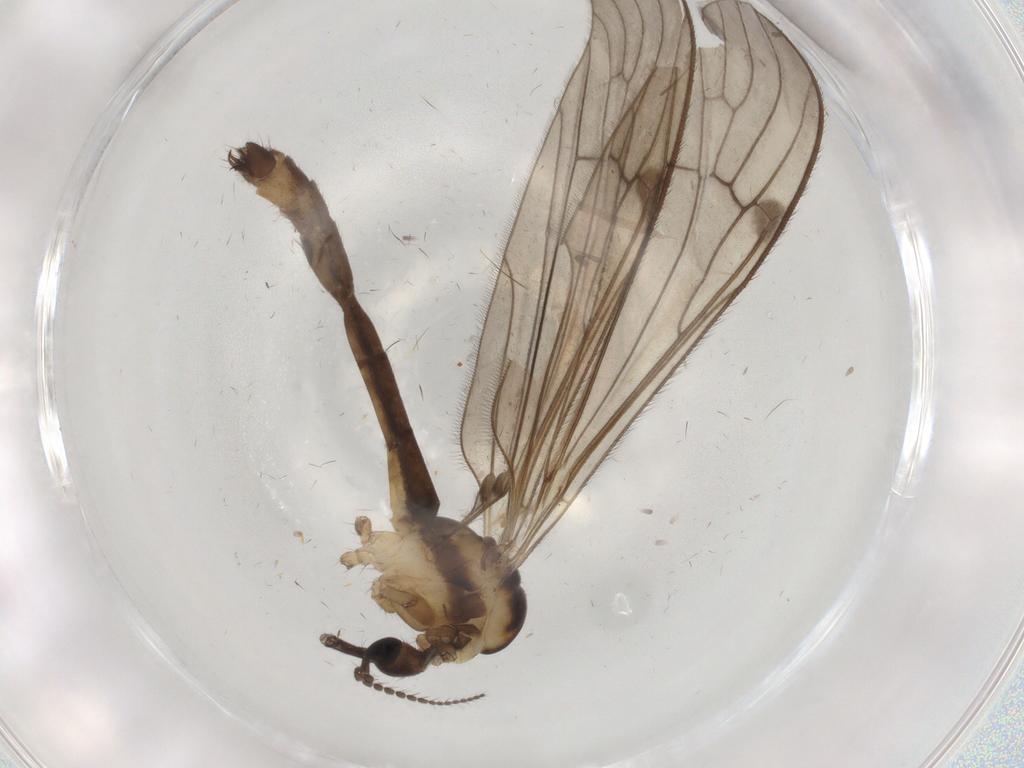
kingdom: Animalia
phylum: Arthropoda
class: Insecta
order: Diptera
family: Bibionidae
